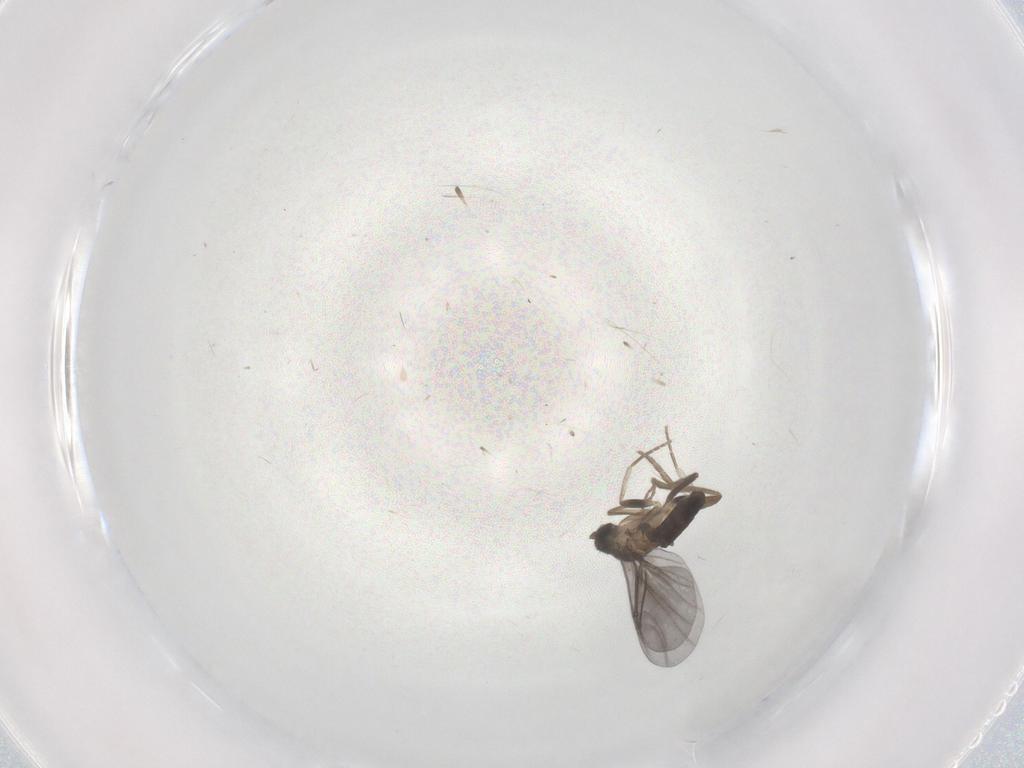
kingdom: Animalia
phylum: Arthropoda
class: Insecta
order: Diptera
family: Phoridae
